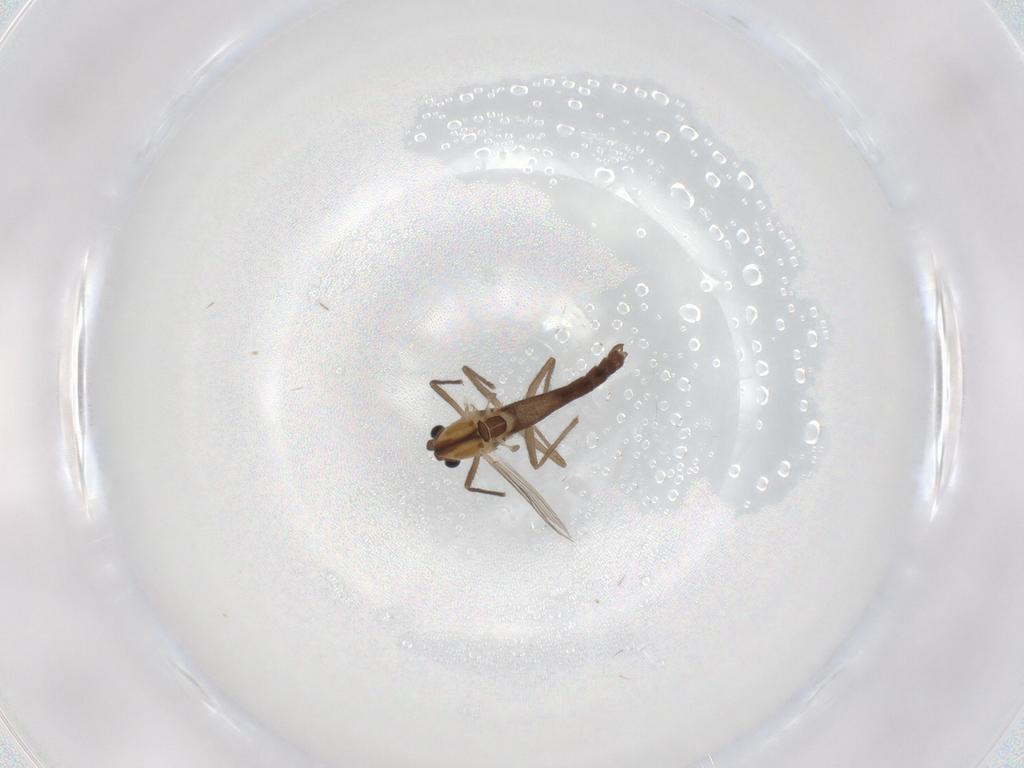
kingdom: Animalia
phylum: Arthropoda
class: Insecta
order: Diptera
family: Chironomidae
